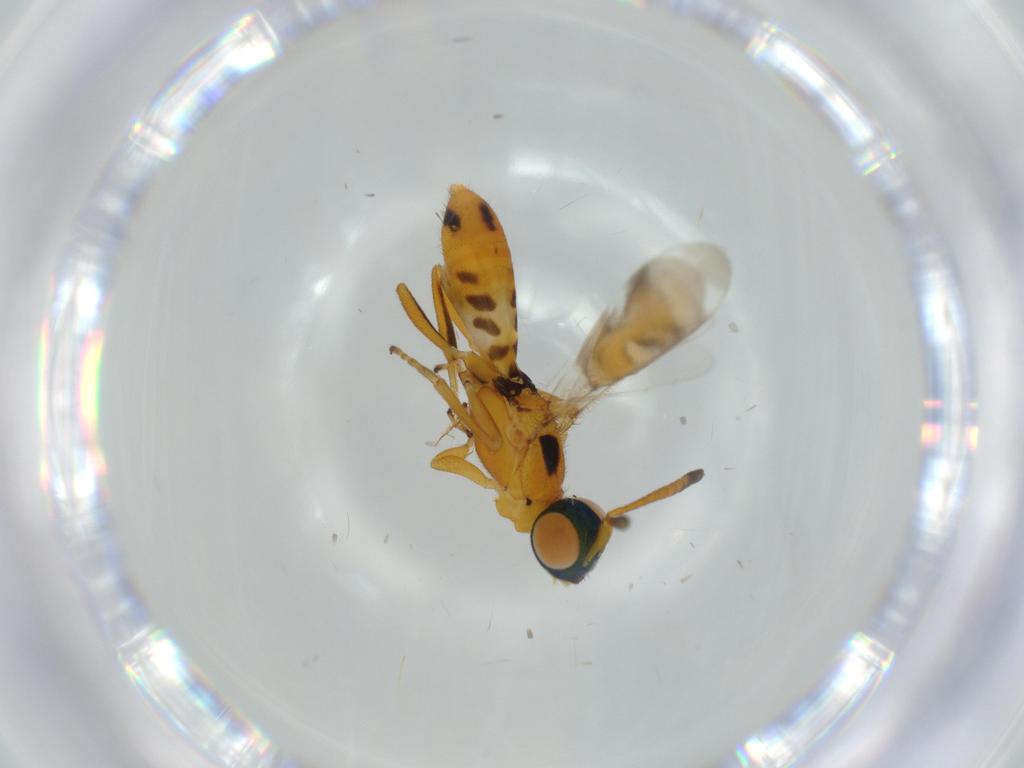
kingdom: Animalia
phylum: Arthropoda
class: Insecta
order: Hymenoptera
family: Trichogrammatidae
